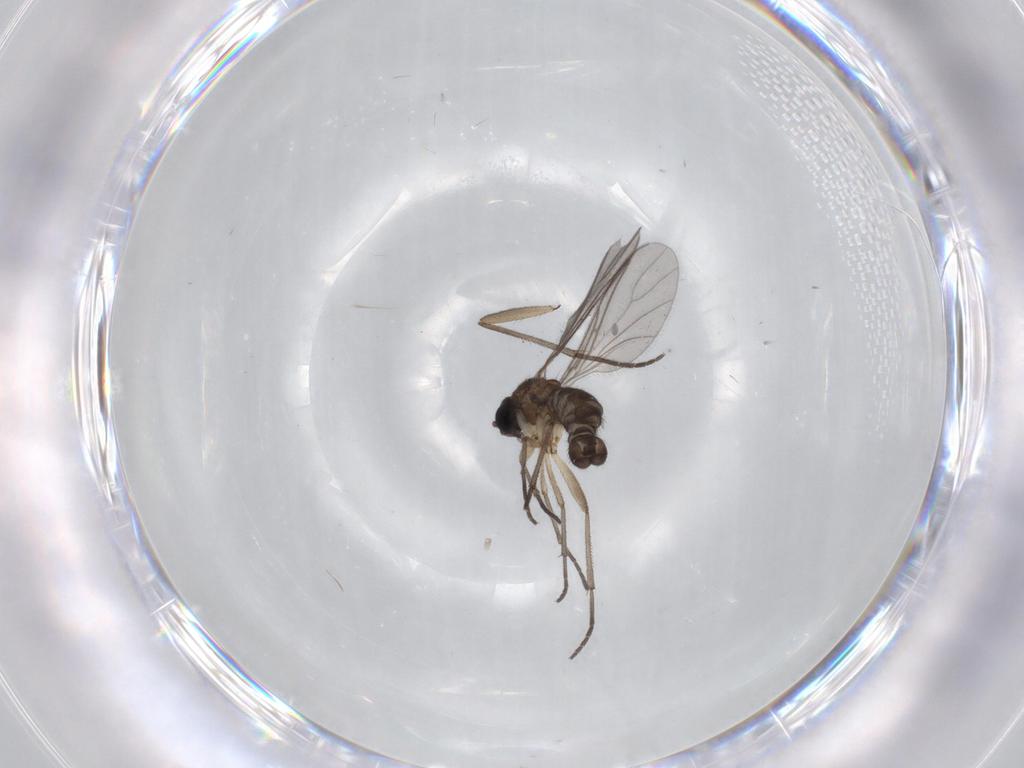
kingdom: Animalia
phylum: Arthropoda
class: Insecta
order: Diptera
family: Sciaridae
